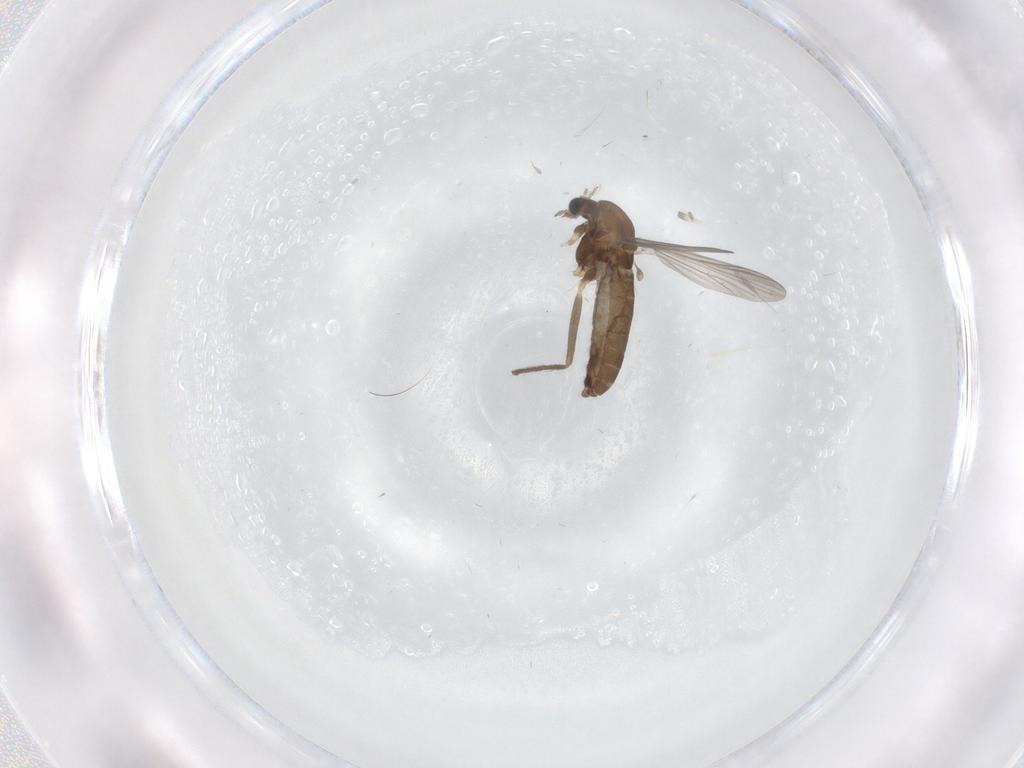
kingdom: Animalia
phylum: Arthropoda
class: Insecta
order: Diptera
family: Chironomidae
